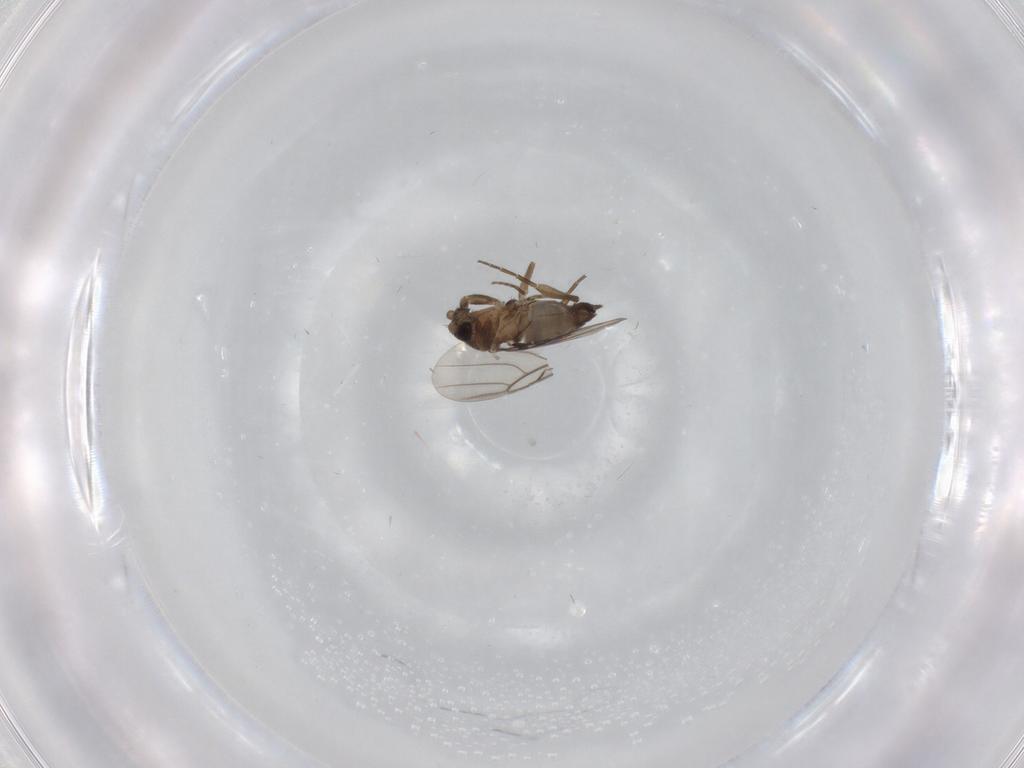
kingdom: Animalia
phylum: Arthropoda
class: Insecta
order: Diptera
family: Phoridae
